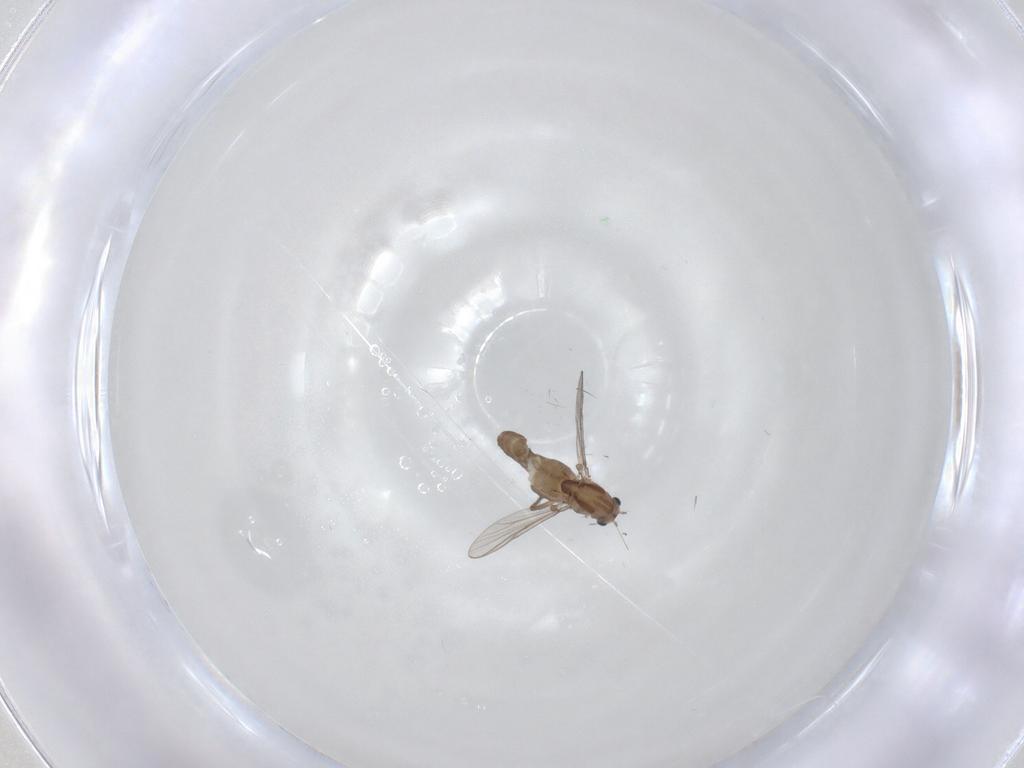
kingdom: Animalia
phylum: Arthropoda
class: Insecta
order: Diptera
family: Chironomidae
